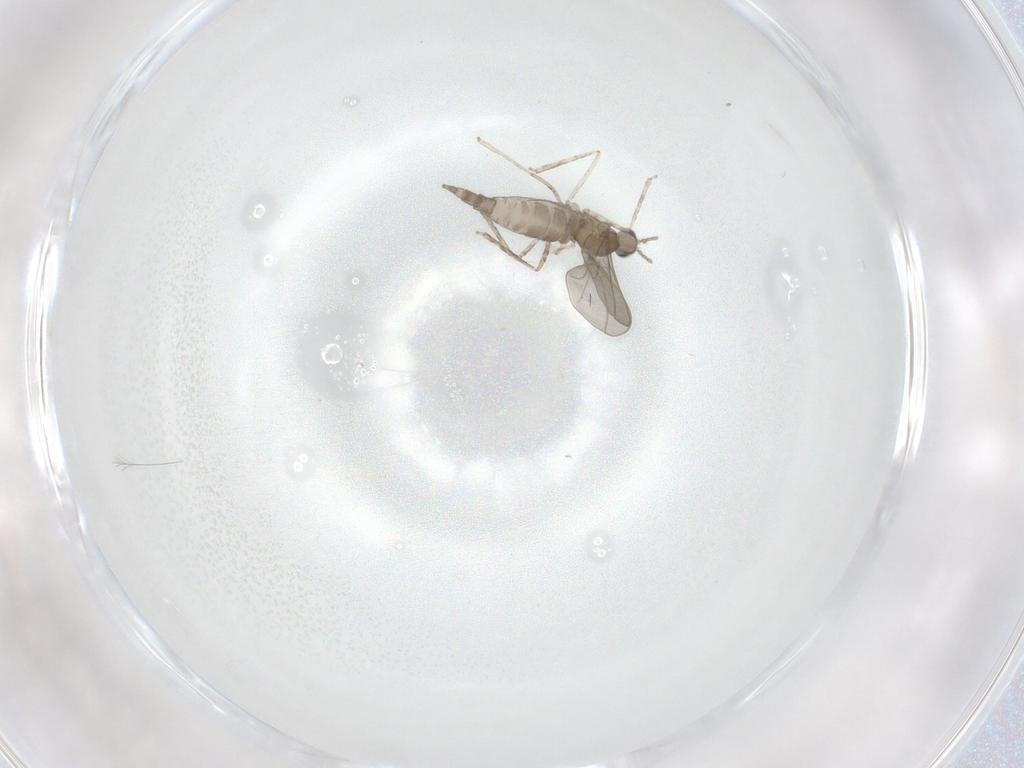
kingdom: Animalia
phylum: Arthropoda
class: Insecta
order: Diptera
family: Cecidomyiidae
